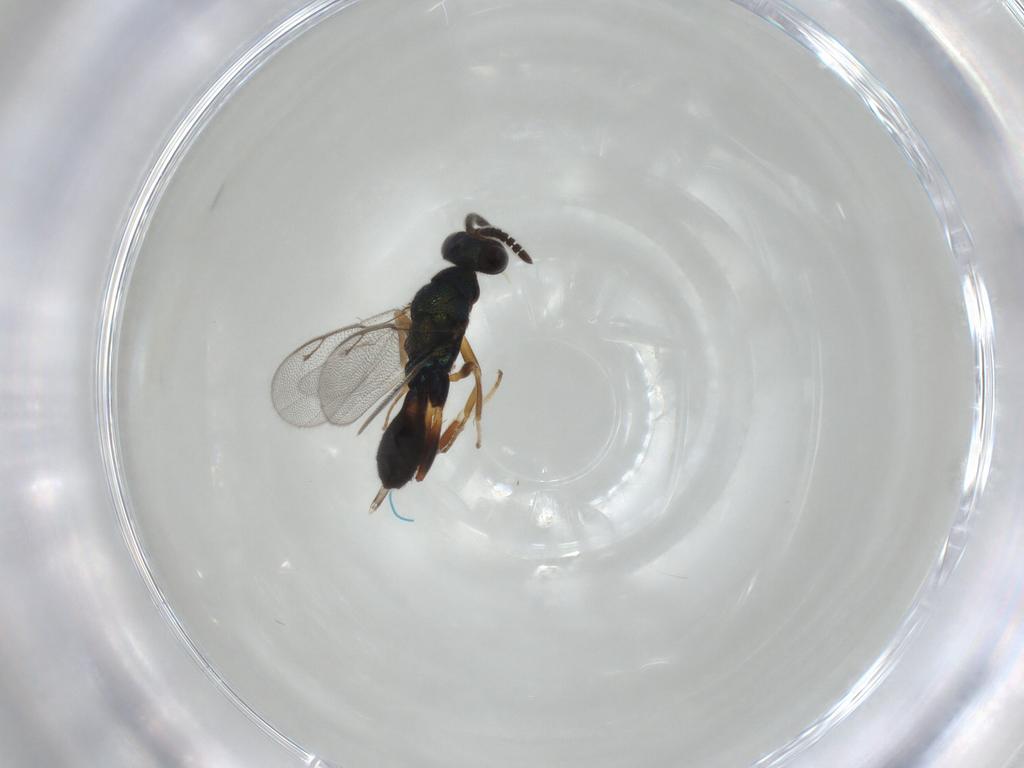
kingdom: Animalia
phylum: Arthropoda
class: Insecta
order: Hymenoptera
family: Cleonyminae
